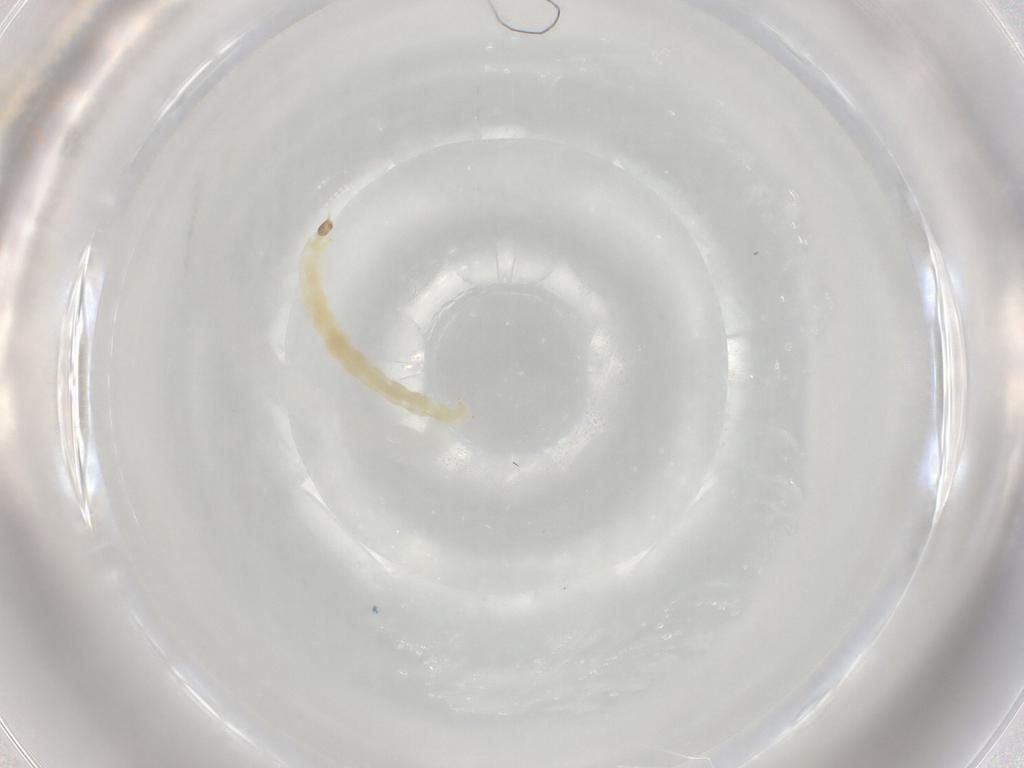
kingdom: Animalia
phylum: Arthropoda
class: Insecta
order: Diptera
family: Chironomidae
